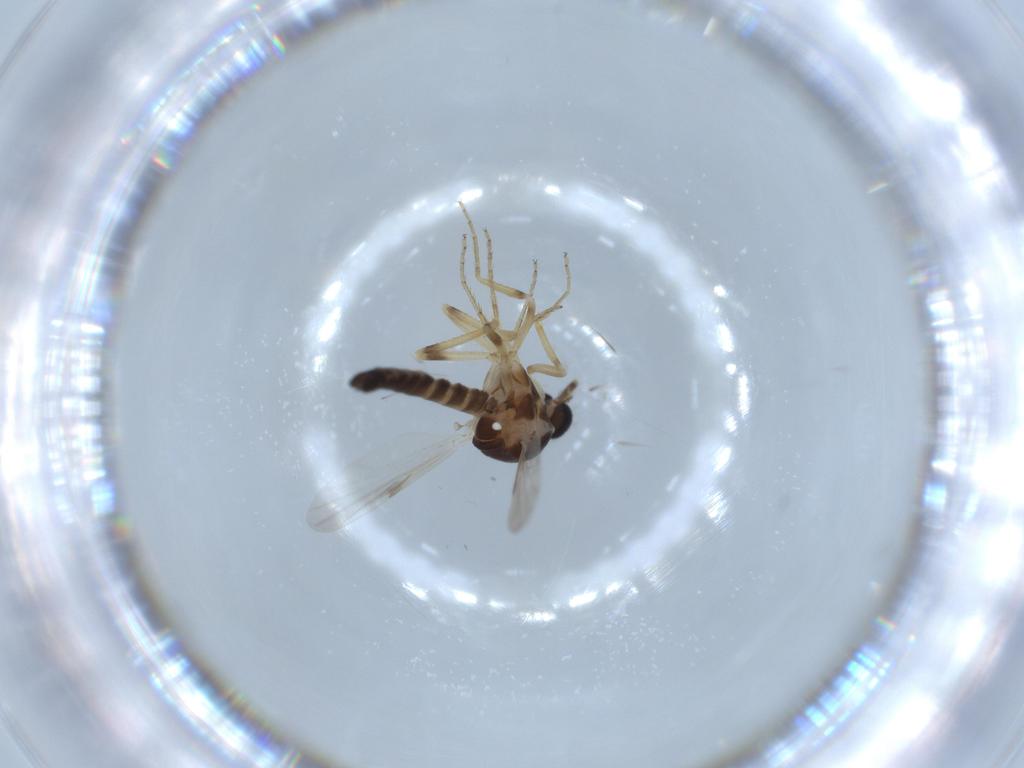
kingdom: Animalia
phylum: Arthropoda
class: Insecta
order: Diptera
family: Ceratopogonidae
